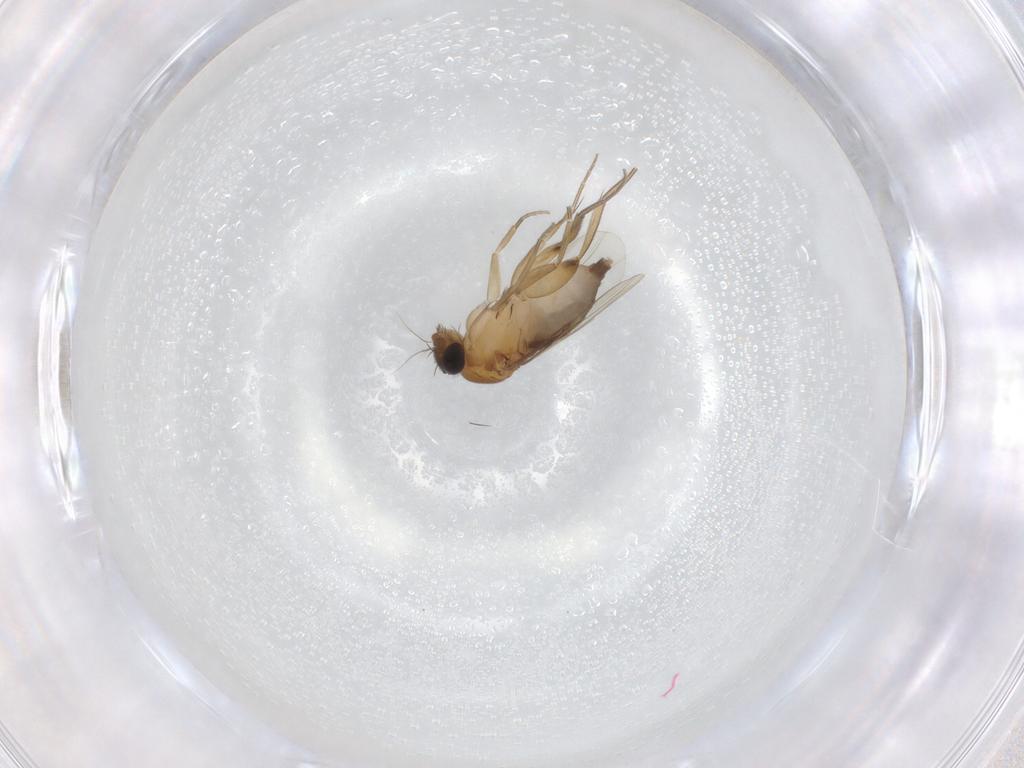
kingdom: Animalia
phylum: Arthropoda
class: Insecta
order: Diptera
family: Phoridae
